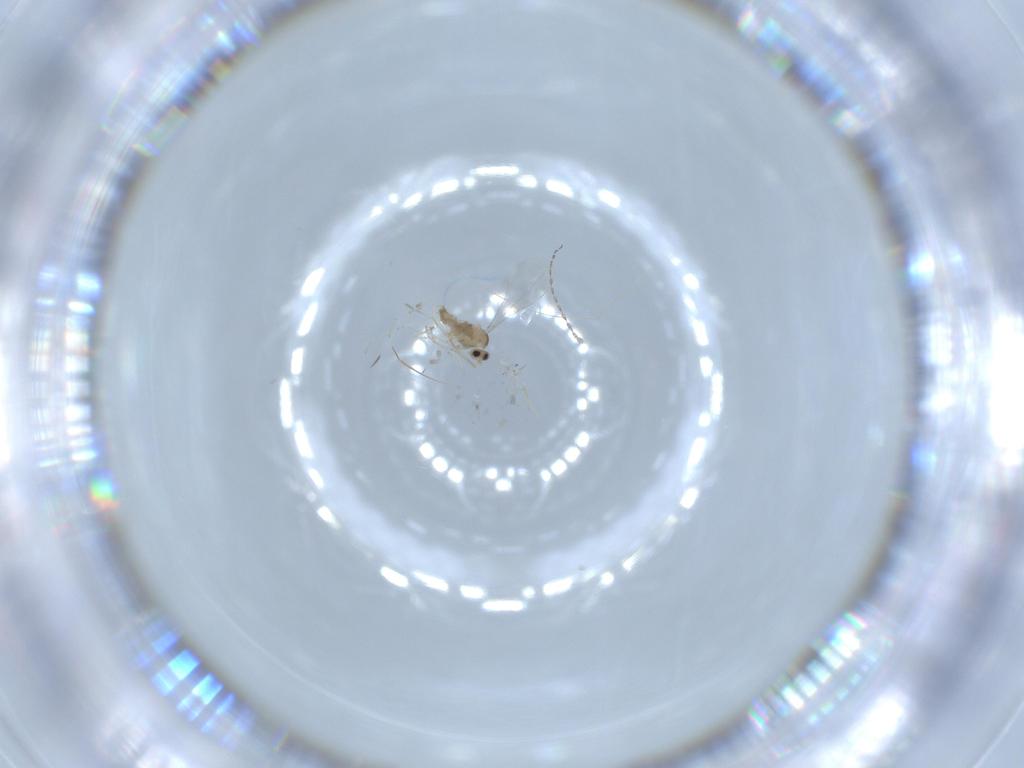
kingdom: Animalia
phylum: Arthropoda
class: Insecta
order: Diptera
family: Cecidomyiidae
